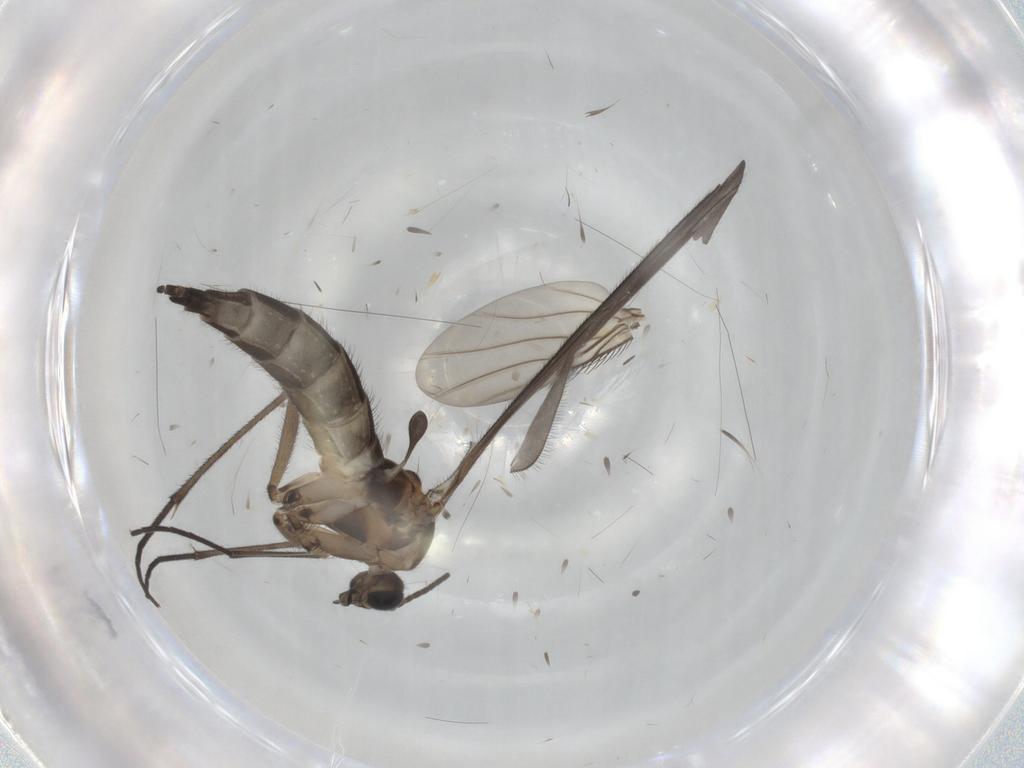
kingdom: Animalia
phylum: Arthropoda
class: Insecta
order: Diptera
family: Sciaridae
